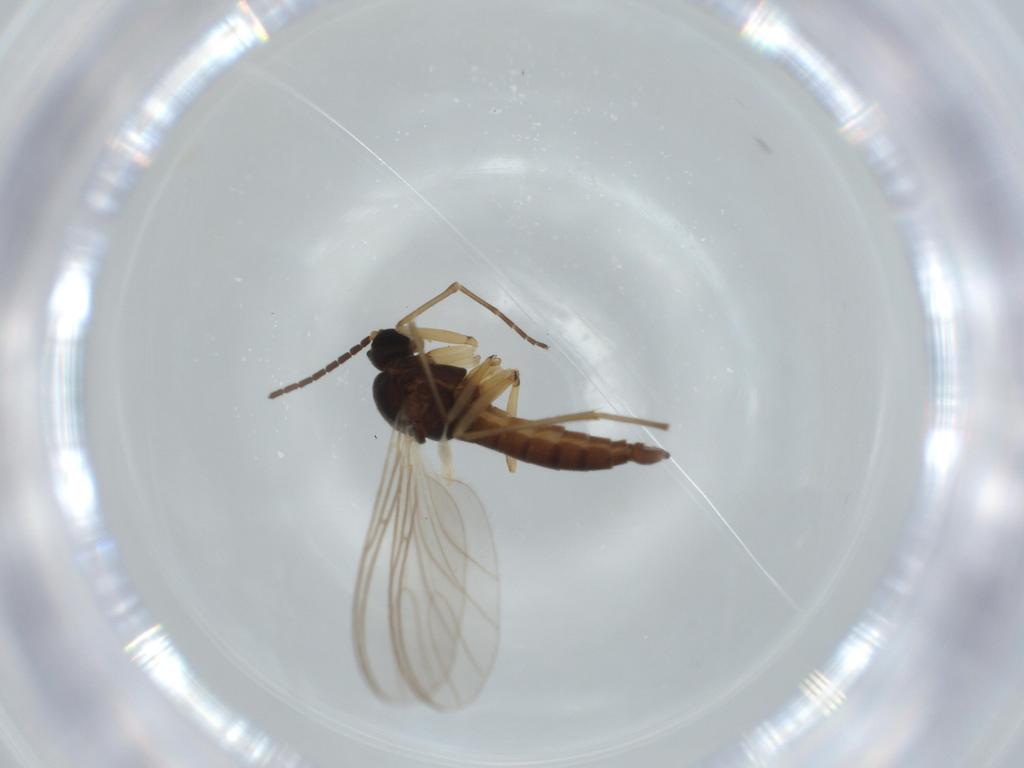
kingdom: Animalia
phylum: Arthropoda
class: Insecta
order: Diptera
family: Sciaridae
